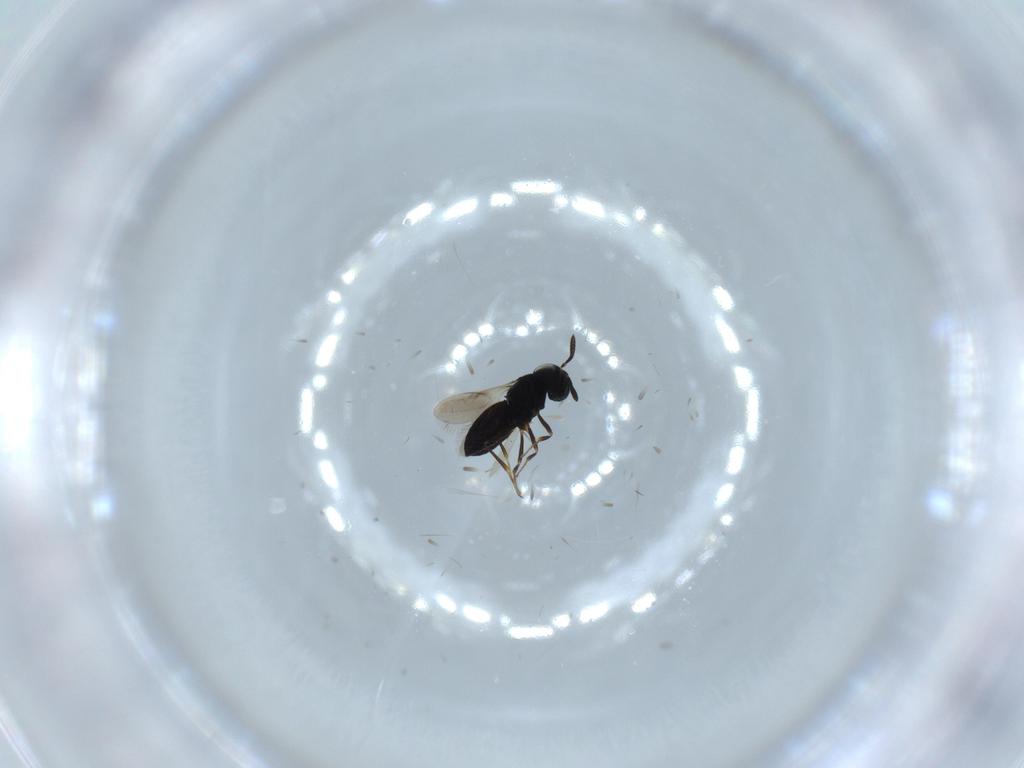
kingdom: Animalia
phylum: Arthropoda
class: Insecta
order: Hymenoptera
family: Scelionidae
